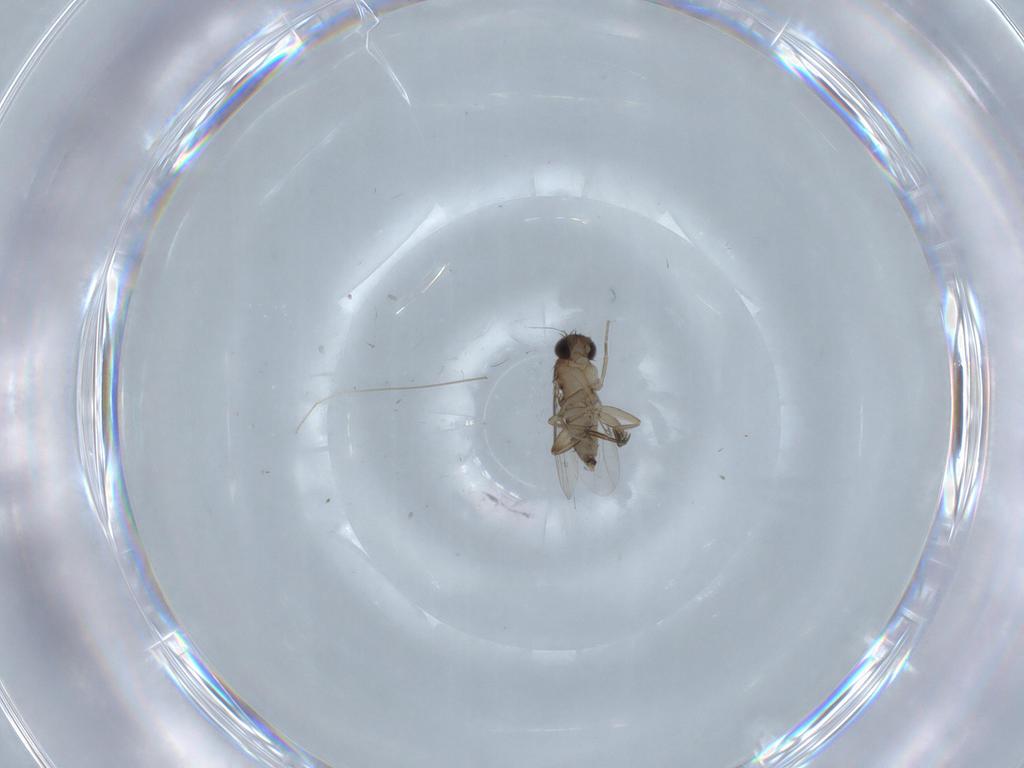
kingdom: Animalia
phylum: Arthropoda
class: Insecta
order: Diptera
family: Phoridae
